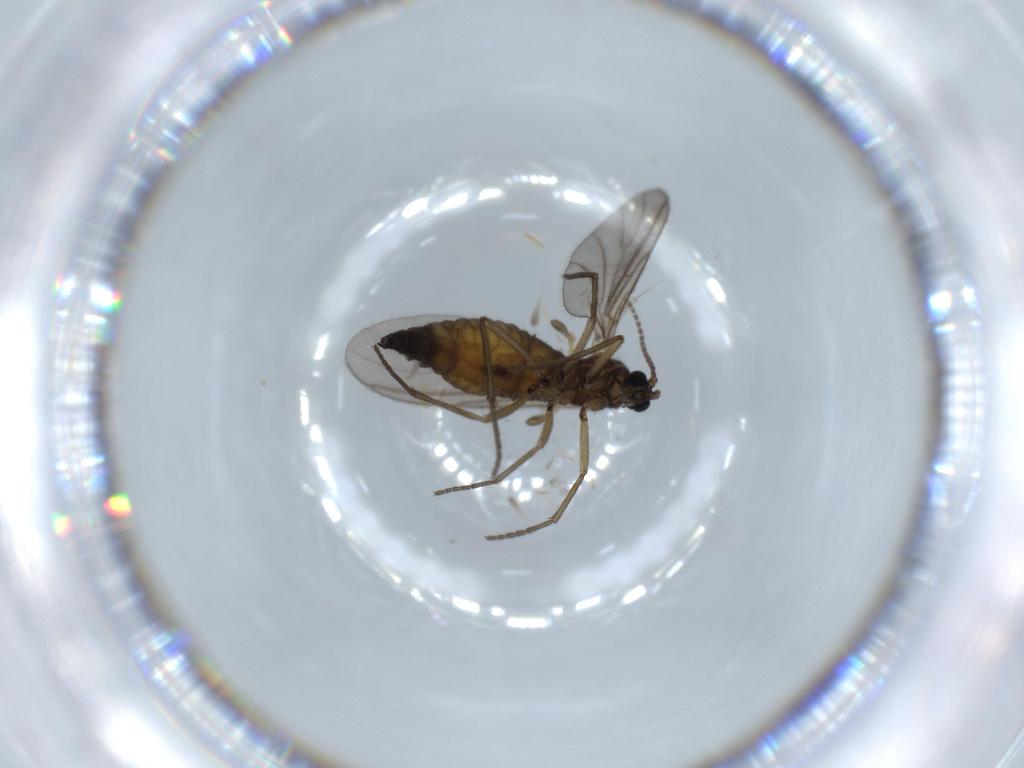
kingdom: Animalia
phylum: Arthropoda
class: Insecta
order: Diptera
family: Sciaridae
